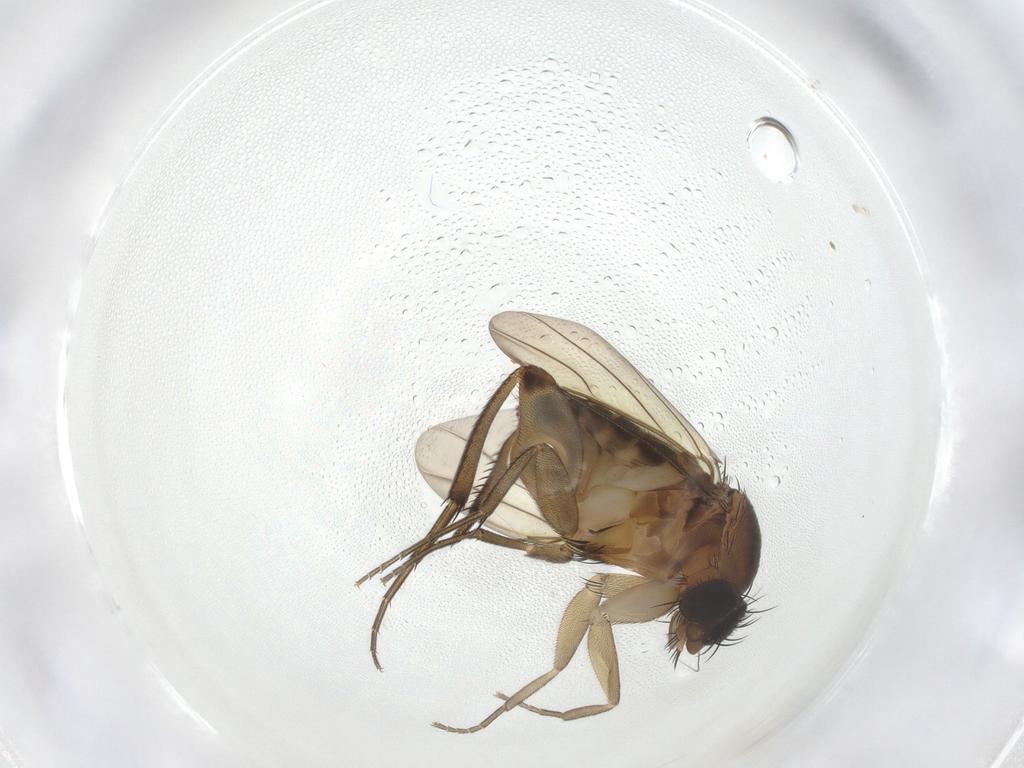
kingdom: Animalia
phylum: Arthropoda
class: Insecta
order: Diptera
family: Phoridae
